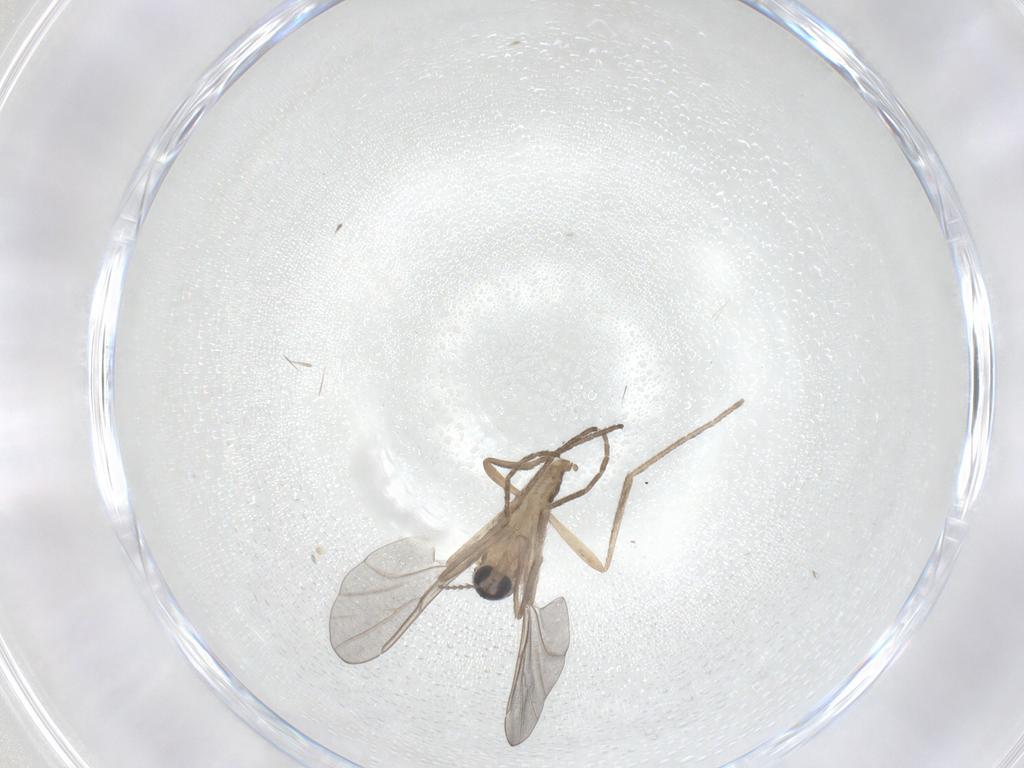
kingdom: Animalia
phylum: Arthropoda
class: Insecta
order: Diptera
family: Cecidomyiidae
